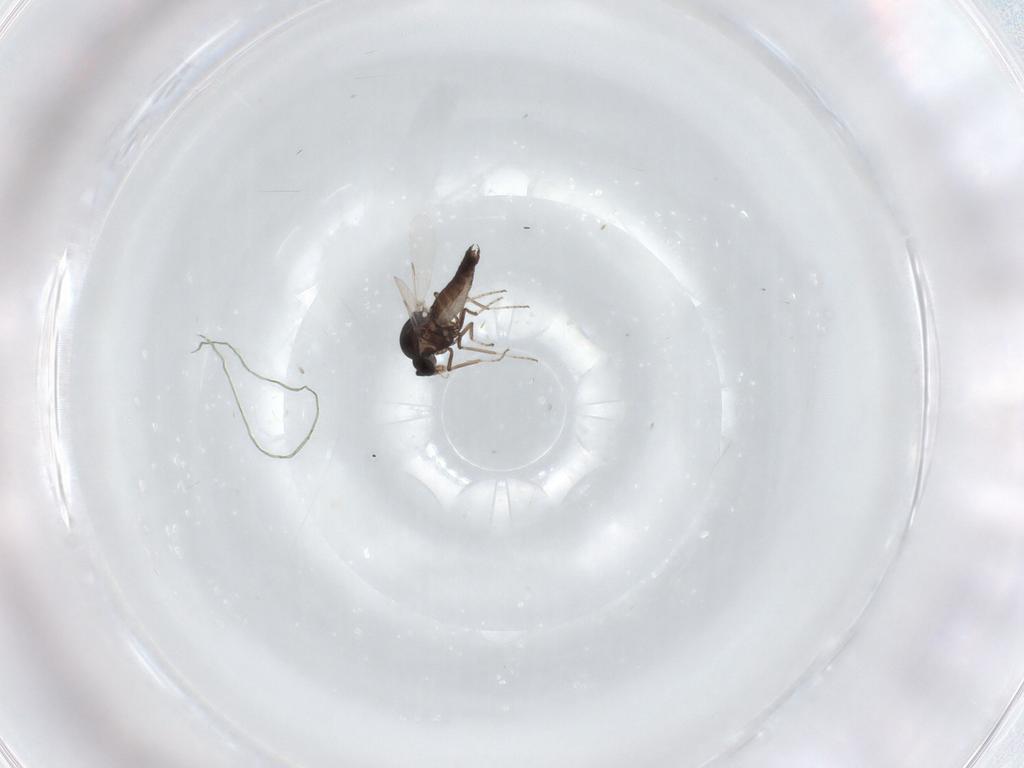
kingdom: Animalia
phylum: Arthropoda
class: Insecta
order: Diptera
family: Ceratopogonidae
